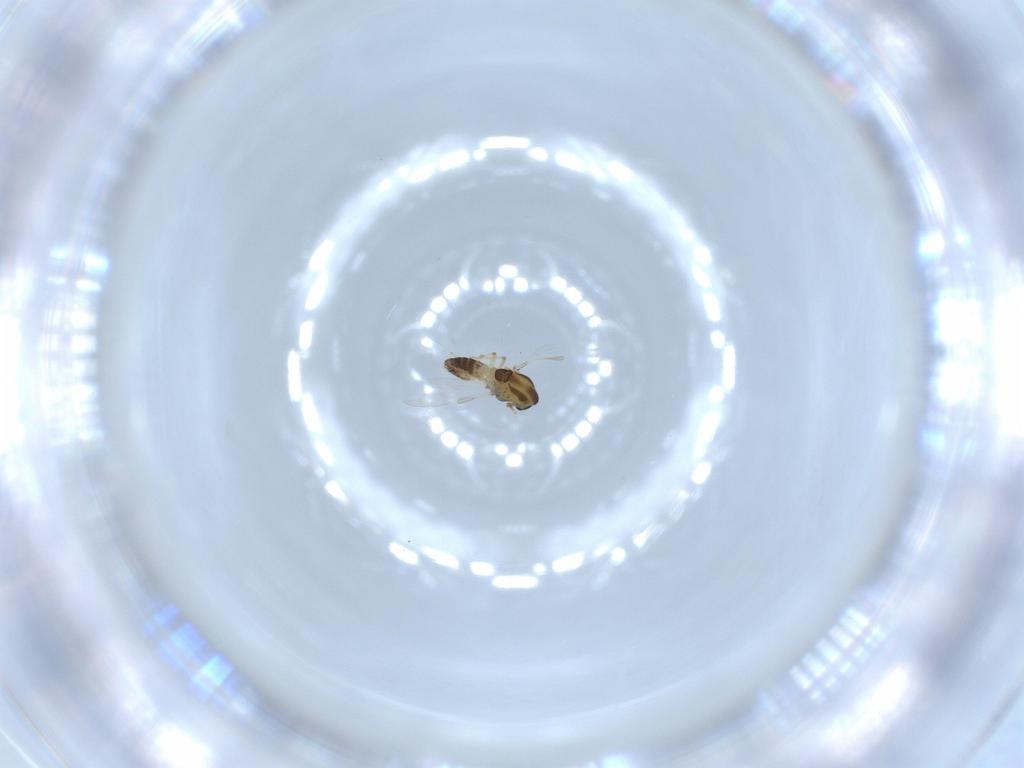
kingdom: Animalia
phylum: Arthropoda
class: Insecta
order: Diptera
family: Chironomidae
